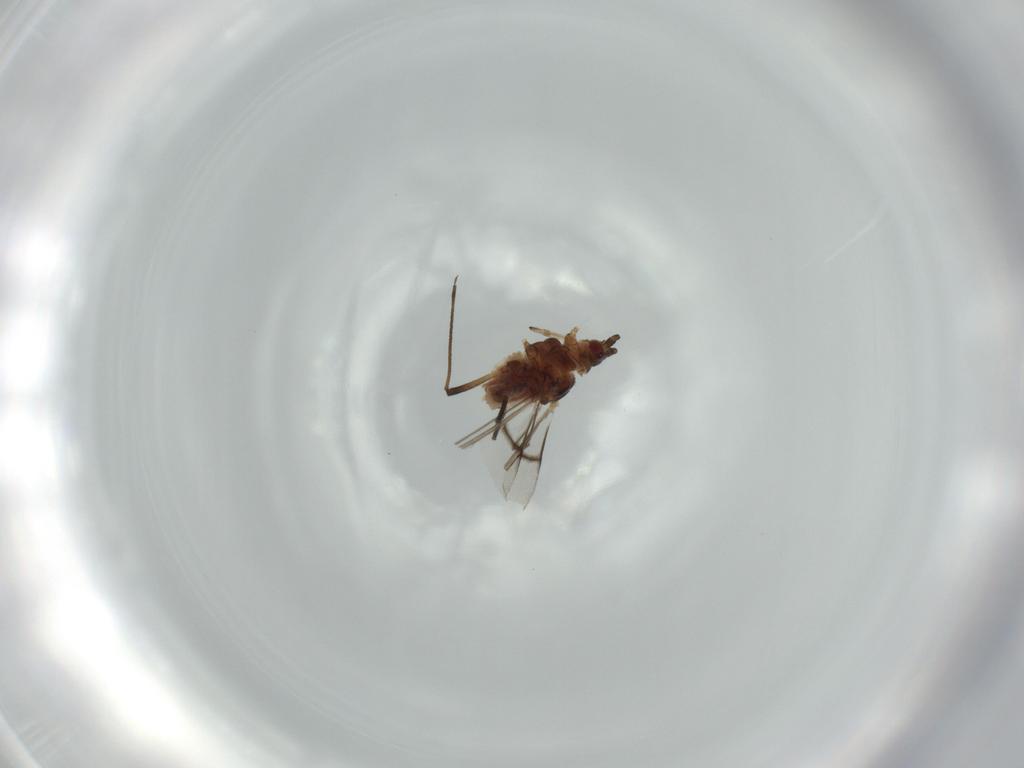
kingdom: Animalia
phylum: Arthropoda
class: Insecta
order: Hemiptera
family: Aphididae
